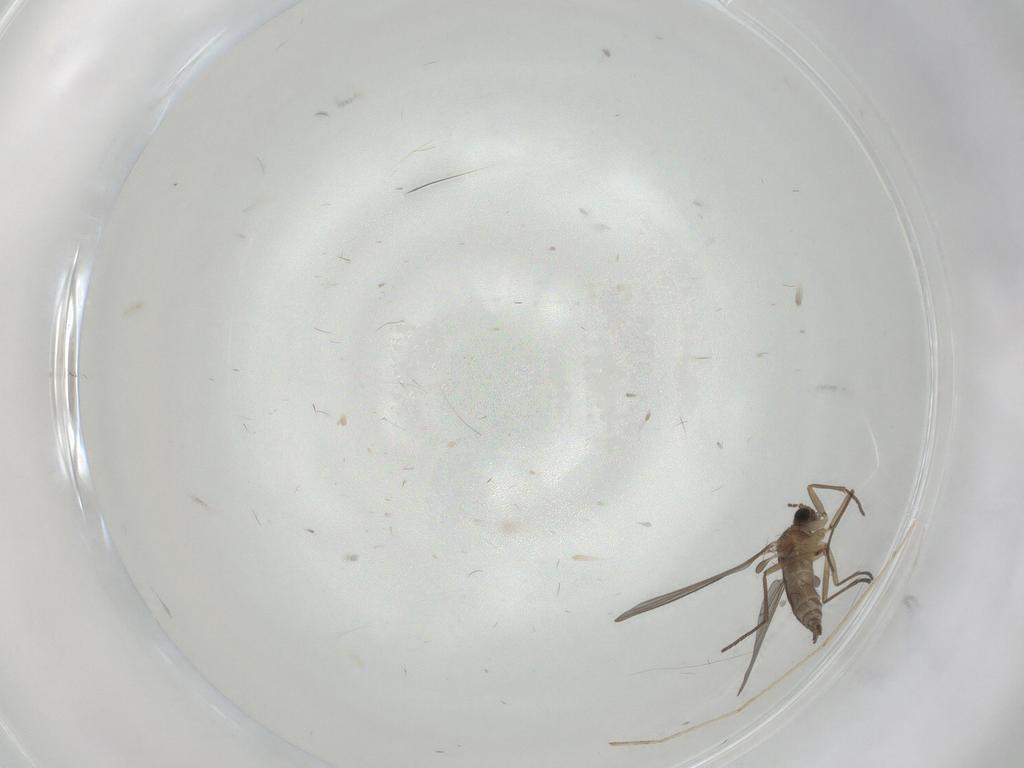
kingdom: Animalia
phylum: Arthropoda
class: Insecta
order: Diptera
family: Sciaridae
